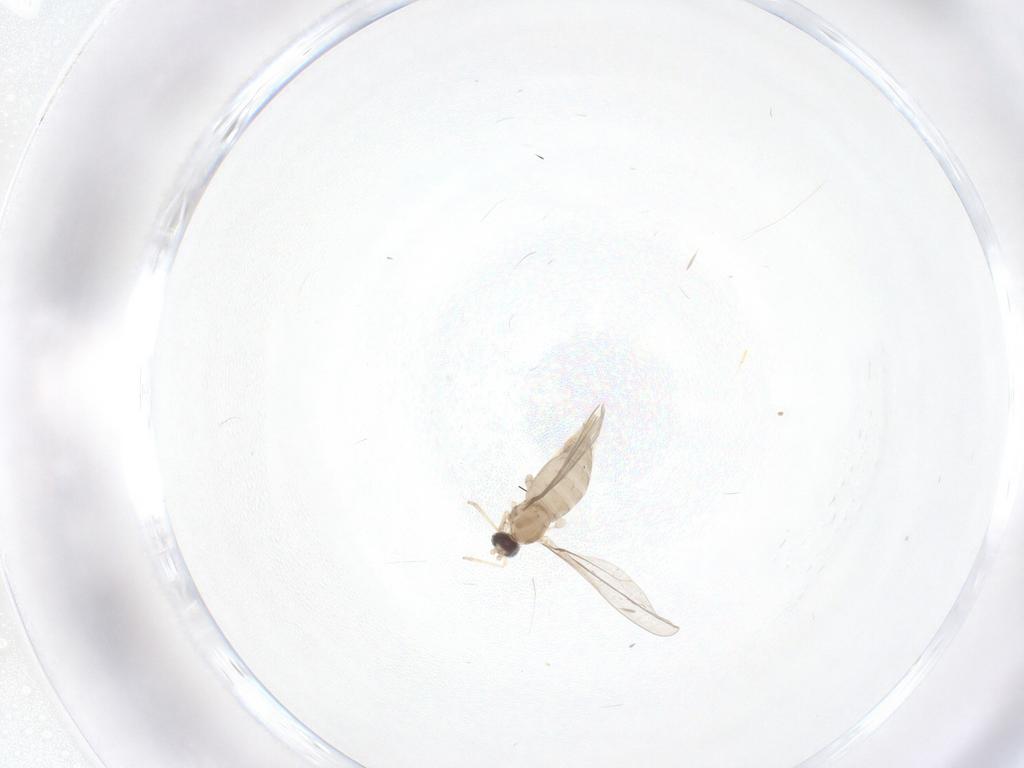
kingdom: Animalia
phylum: Arthropoda
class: Insecta
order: Diptera
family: Cecidomyiidae
